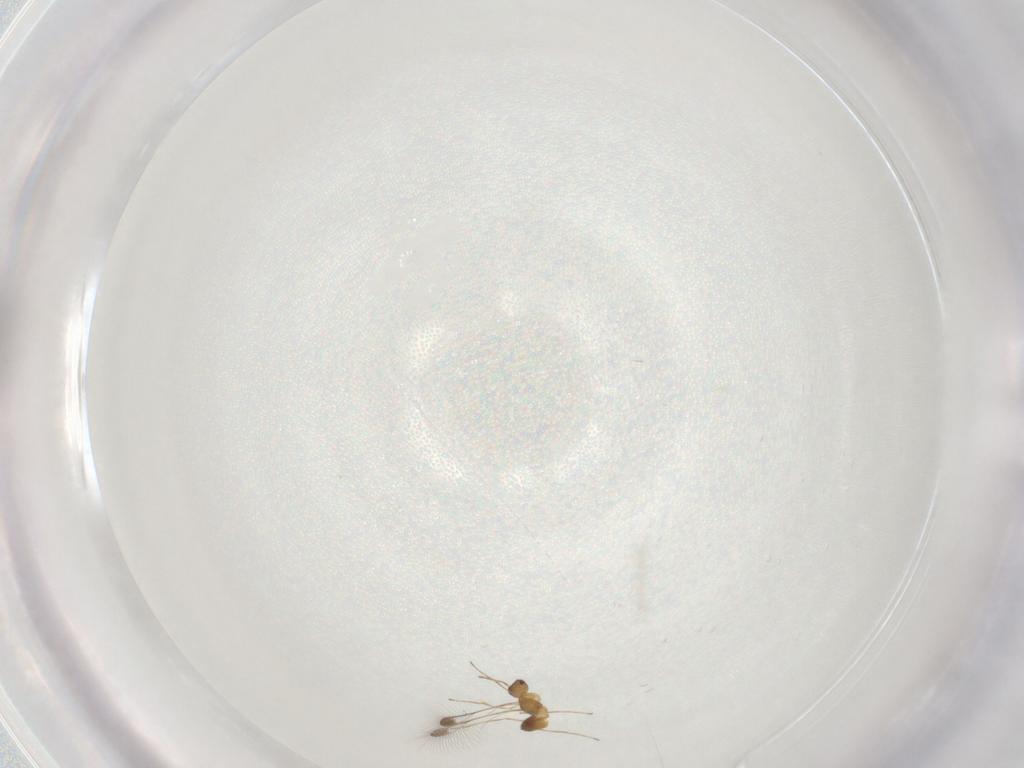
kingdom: Animalia
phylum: Arthropoda
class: Insecta
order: Hymenoptera
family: Mymaridae
